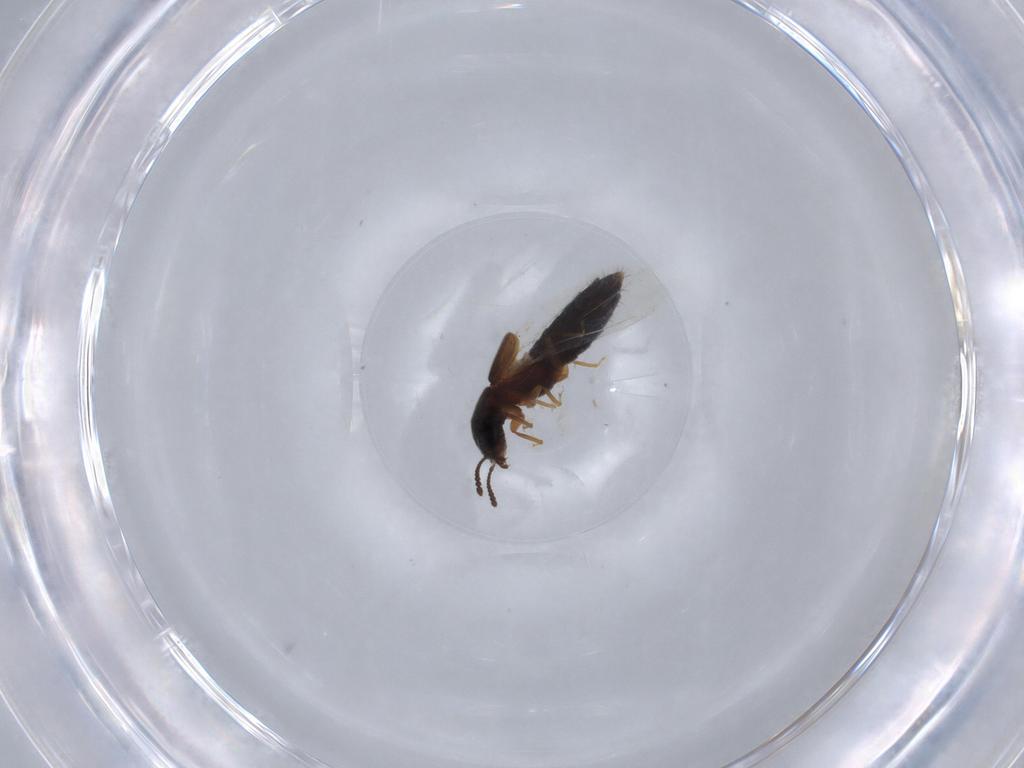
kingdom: Animalia
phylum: Arthropoda
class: Insecta
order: Coleoptera
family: Staphylinidae
